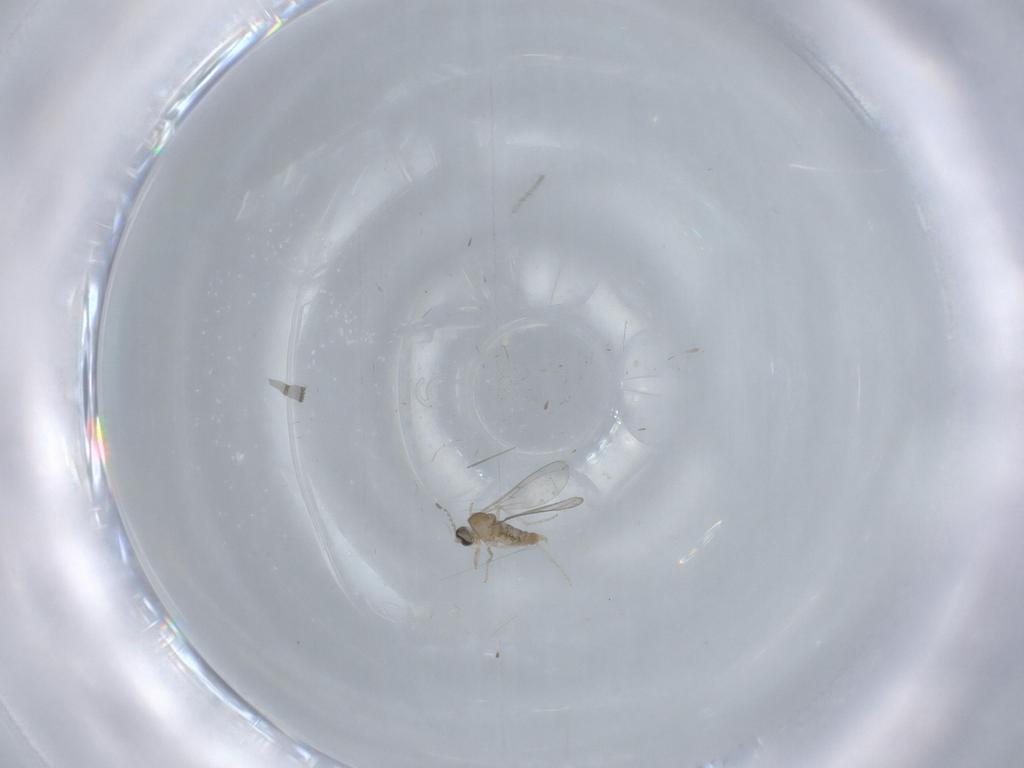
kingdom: Animalia
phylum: Arthropoda
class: Insecta
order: Diptera
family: Cecidomyiidae
